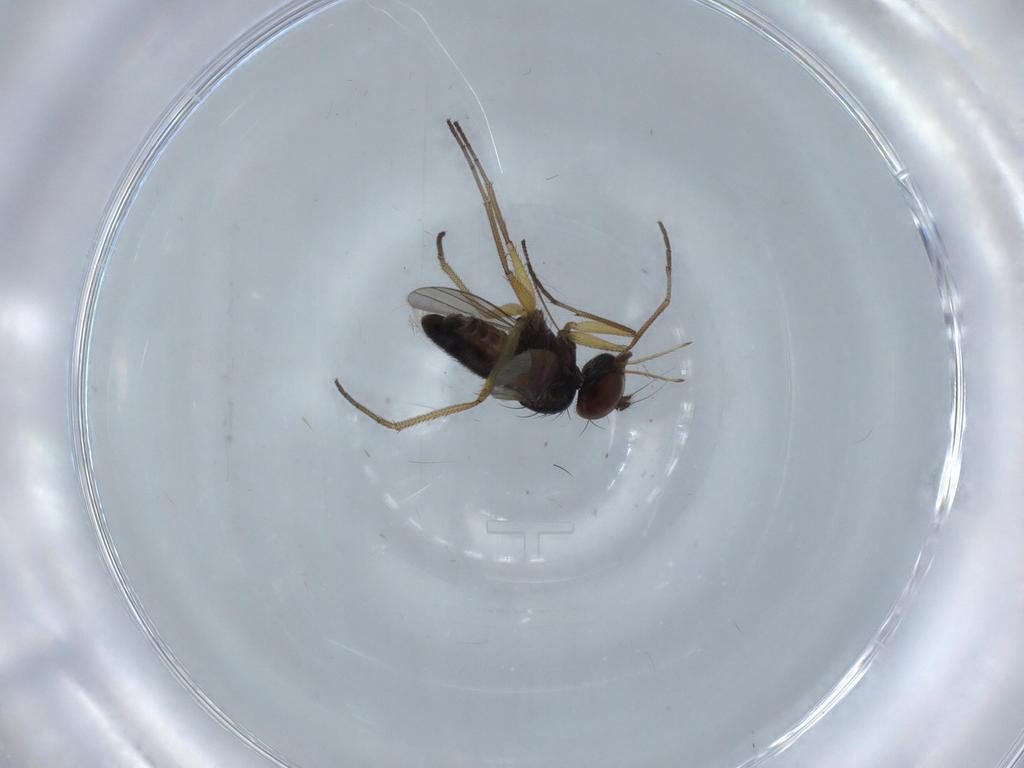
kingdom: Animalia
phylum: Arthropoda
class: Insecta
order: Diptera
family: Dolichopodidae
